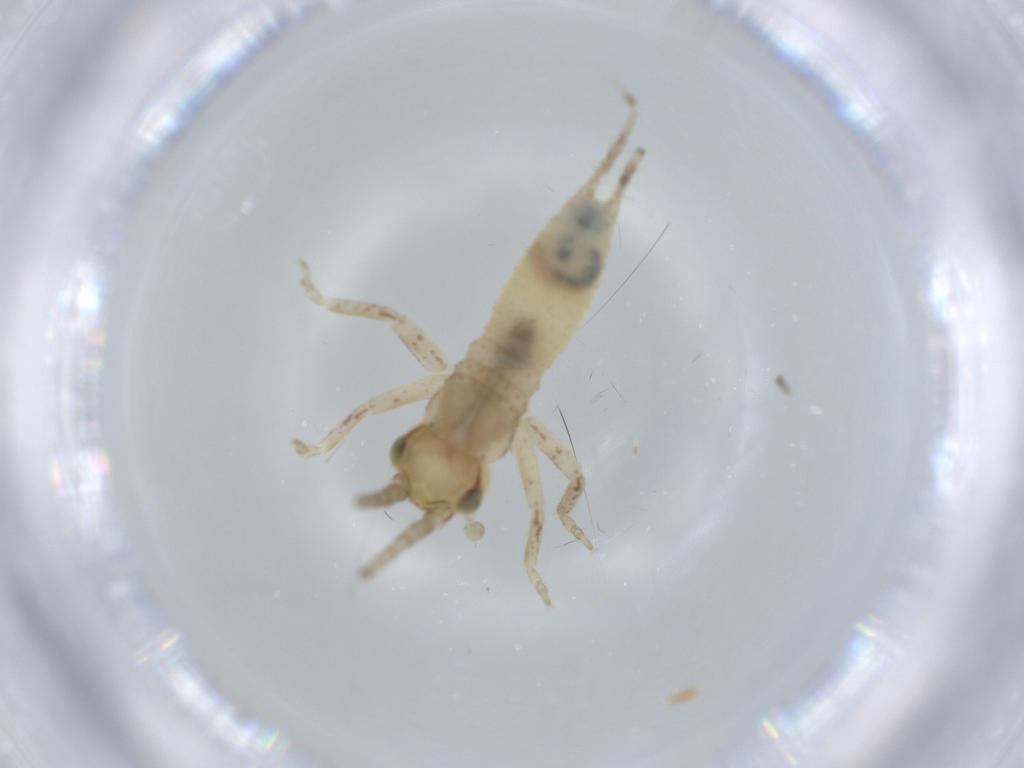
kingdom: Animalia
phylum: Arthropoda
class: Insecta
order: Orthoptera
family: Gryllidae
